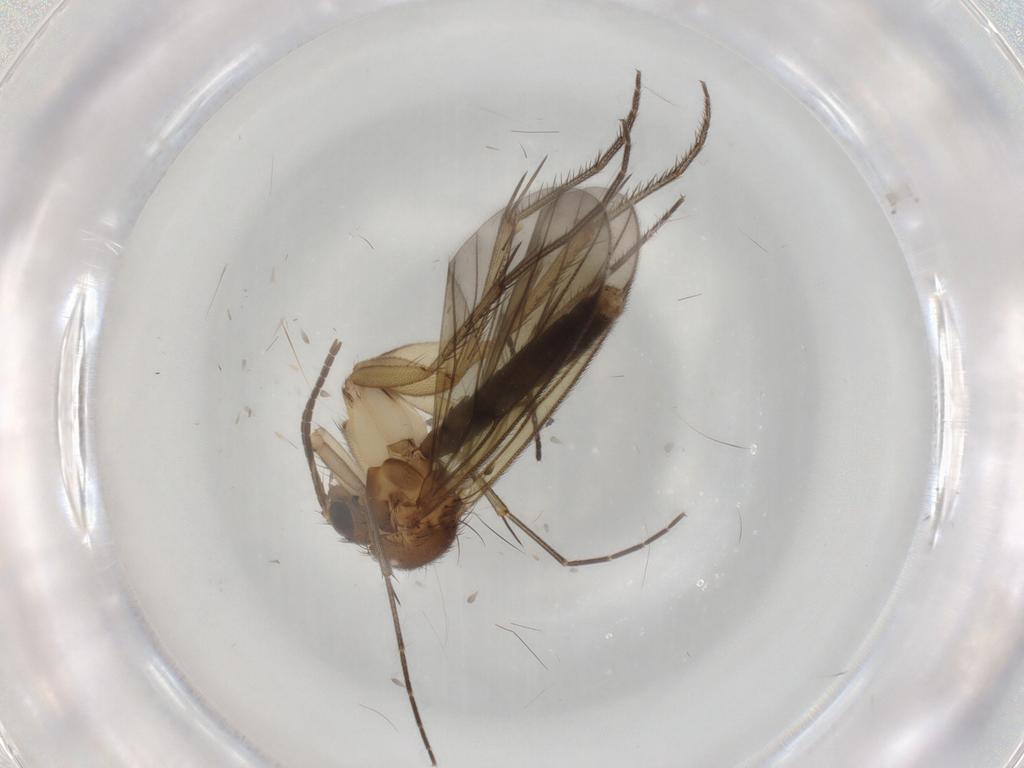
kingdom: Animalia
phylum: Arthropoda
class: Insecta
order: Diptera
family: Mycetophilidae
